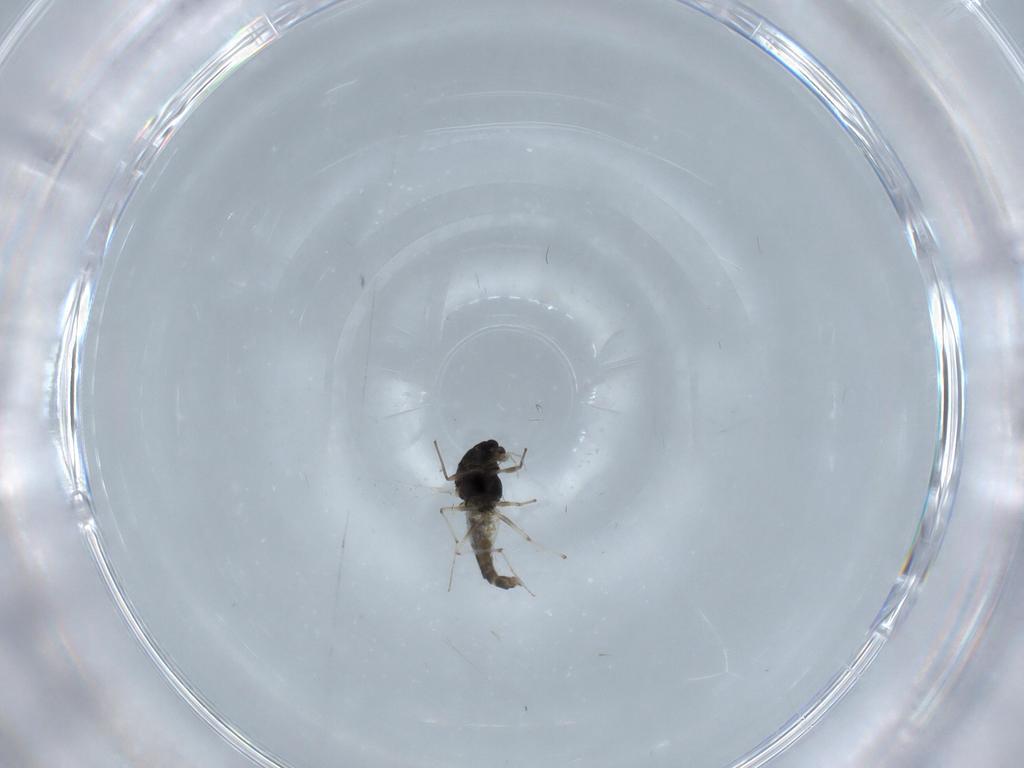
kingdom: Animalia
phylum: Arthropoda
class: Insecta
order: Diptera
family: Chironomidae
